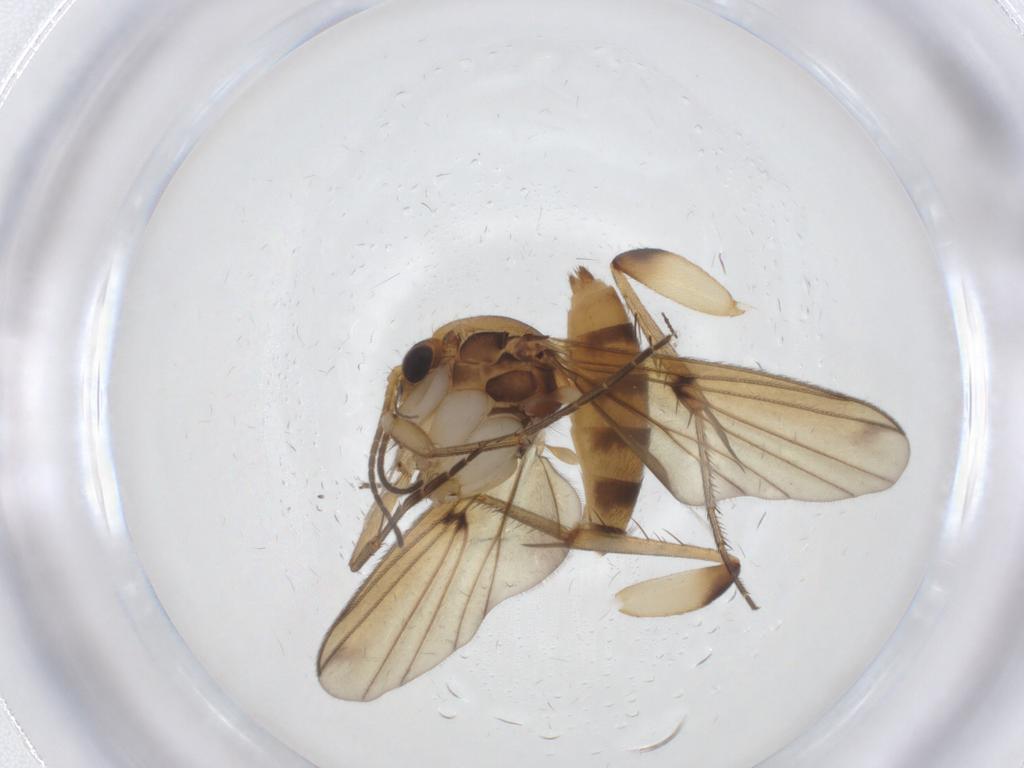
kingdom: Animalia
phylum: Arthropoda
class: Insecta
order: Diptera
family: Mycetophilidae
